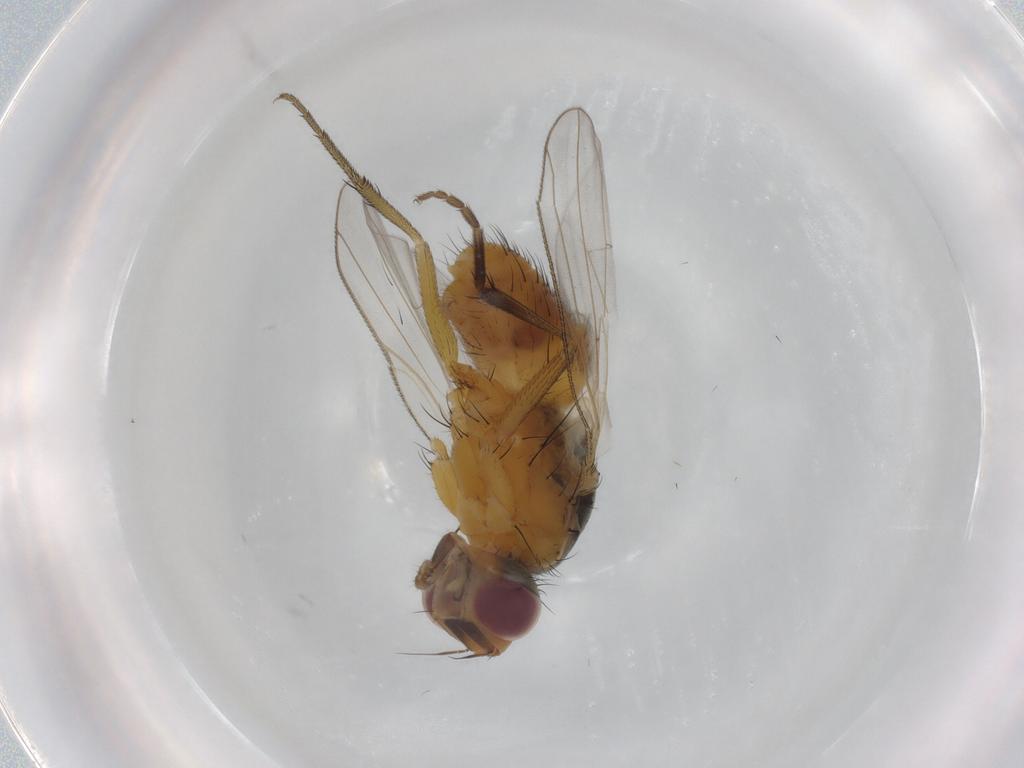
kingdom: Animalia
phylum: Arthropoda
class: Insecta
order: Diptera
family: Muscidae
